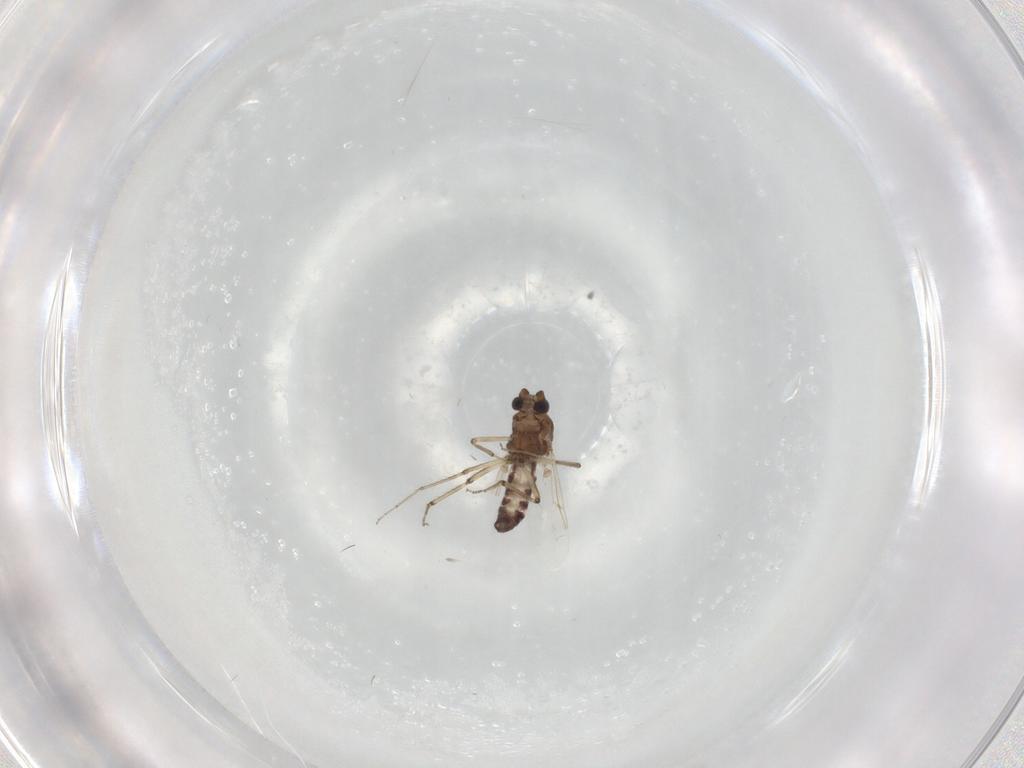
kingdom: Animalia
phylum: Arthropoda
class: Insecta
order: Diptera
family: Ceratopogonidae
